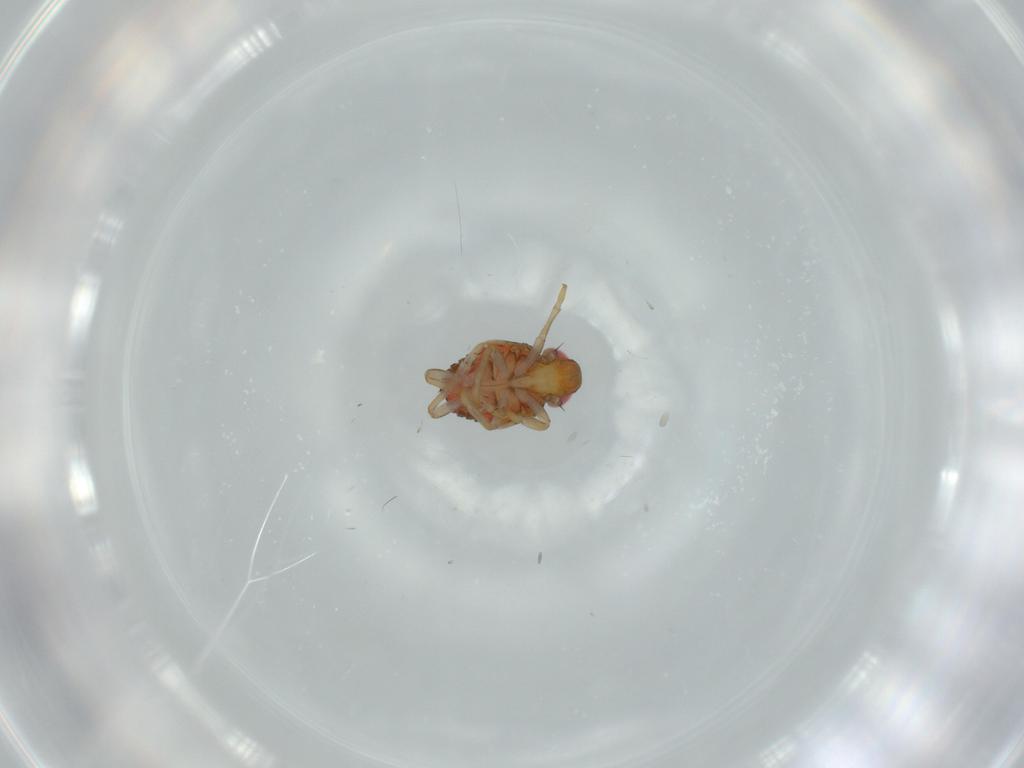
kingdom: Animalia
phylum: Arthropoda
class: Insecta
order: Hemiptera
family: Issidae
